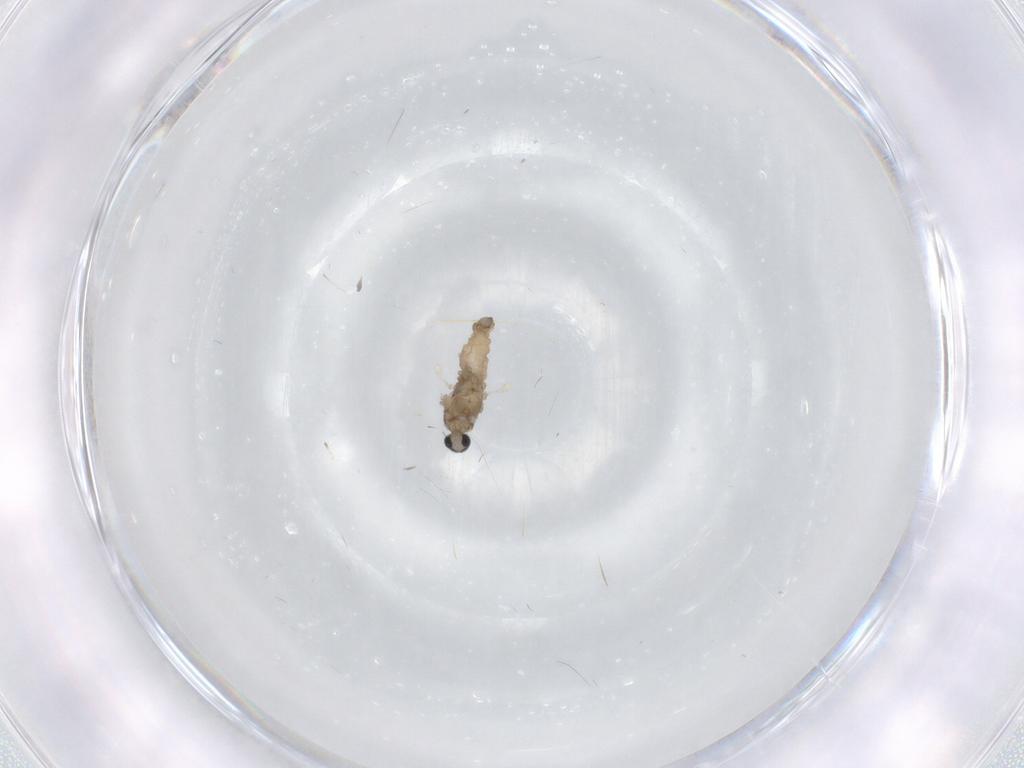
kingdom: Animalia
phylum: Arthropoda
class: Insecta
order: Diptera
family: Cecidomyiidae
